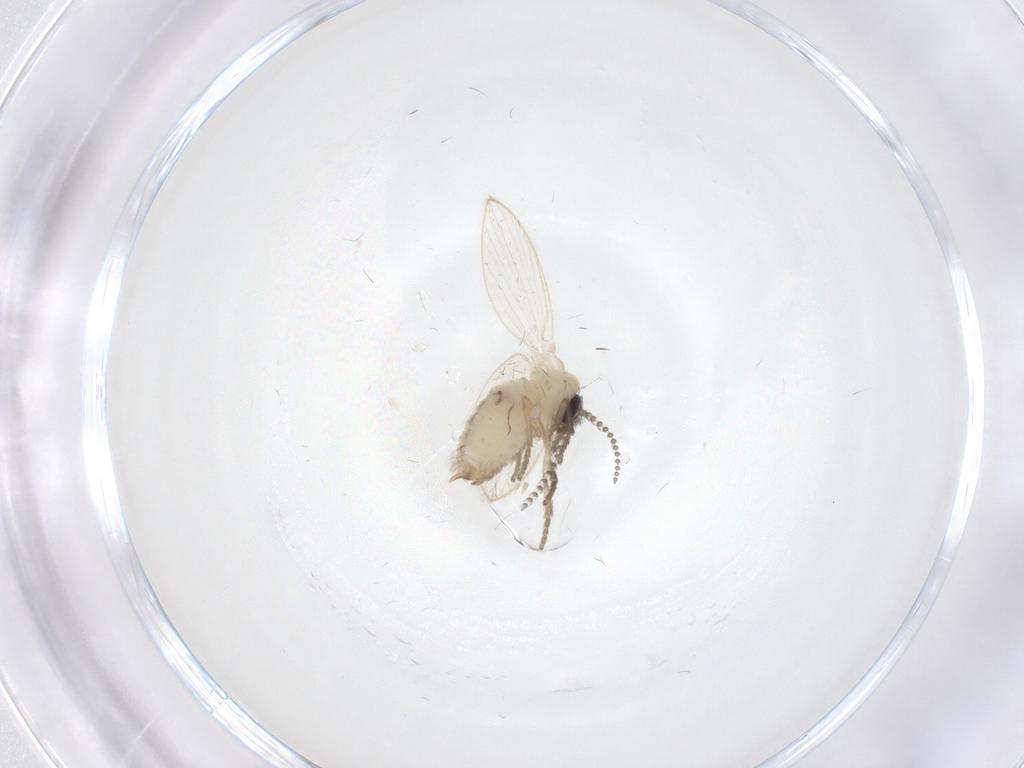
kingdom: Animalia
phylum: Arthropoda
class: Insecta
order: Diptera
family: Psychodidae
